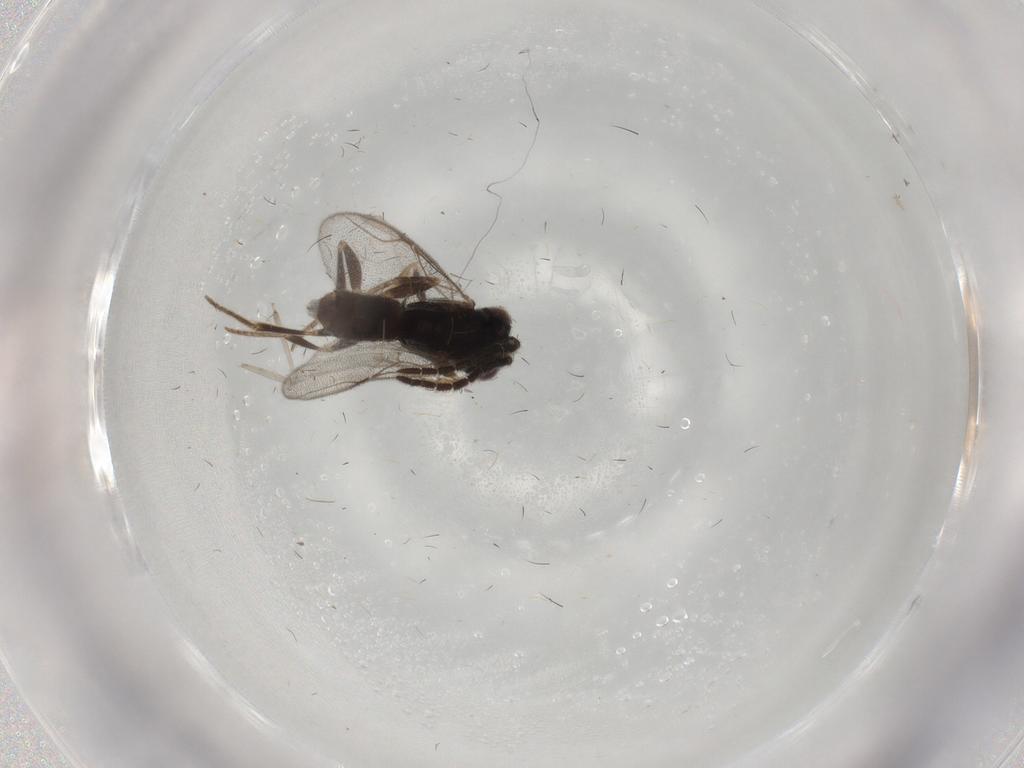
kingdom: Animalia
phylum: Arthropoda
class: Insecta
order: Hymenoptera
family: Dryinidae
